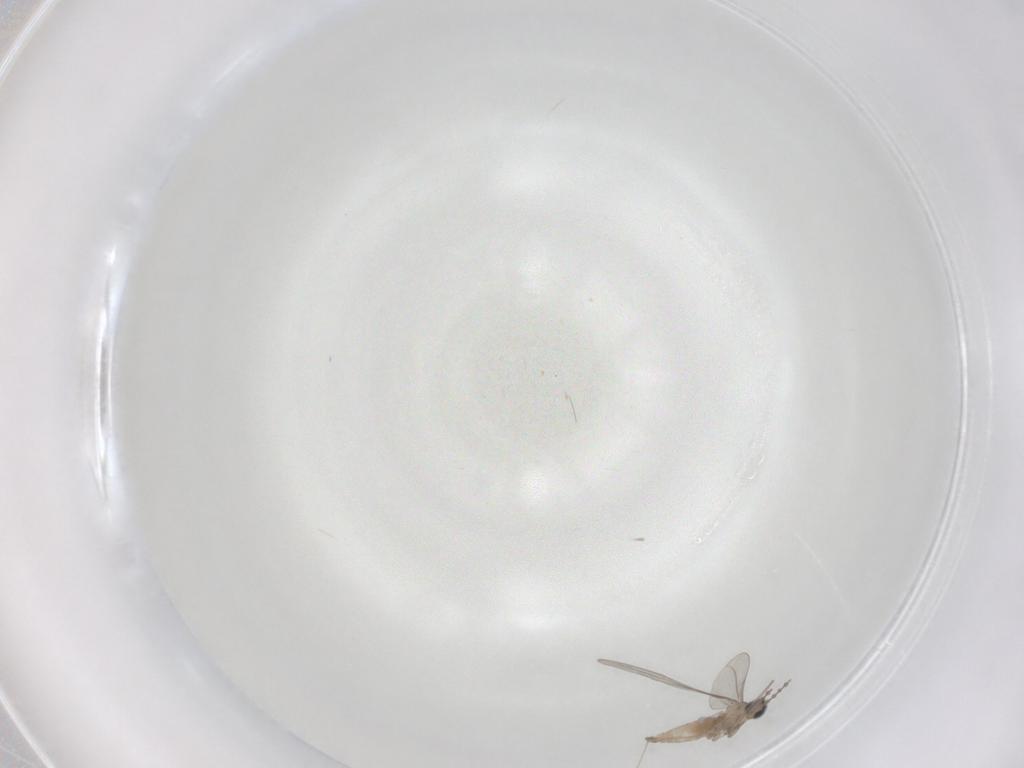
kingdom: Animalia
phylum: Arthropoda
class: Insecta
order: Diptera
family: Cecidomyiidae
